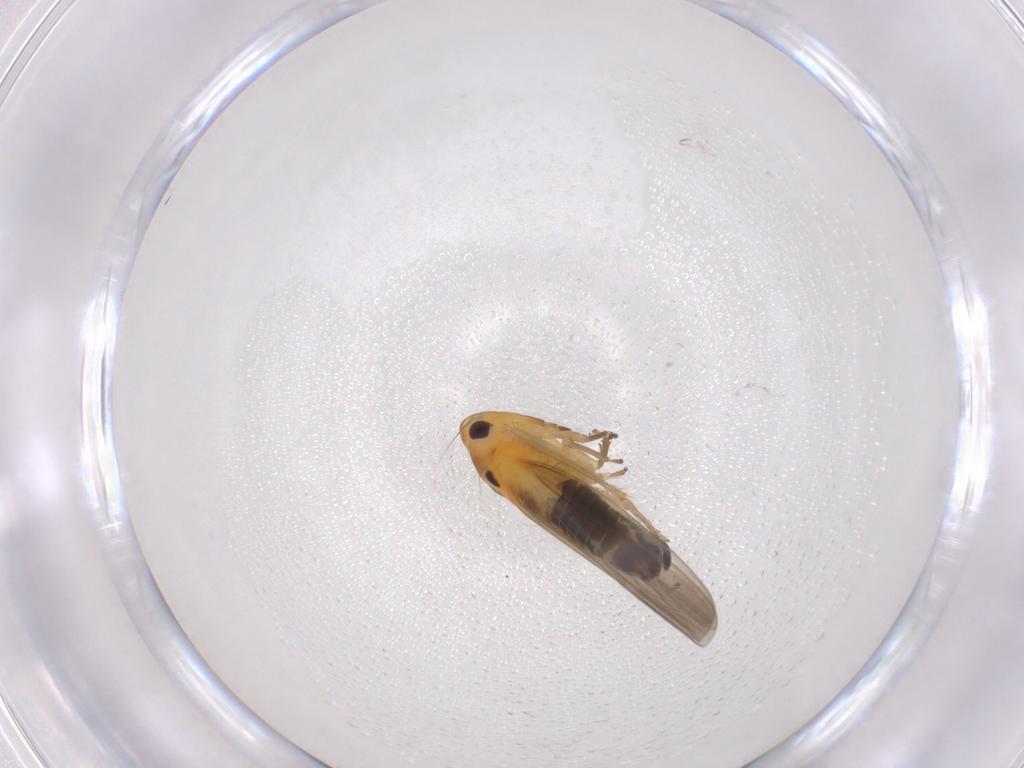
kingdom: Animalia
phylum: Arthropoda
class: Insecta
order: Hemiptera
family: Cicadellidae
